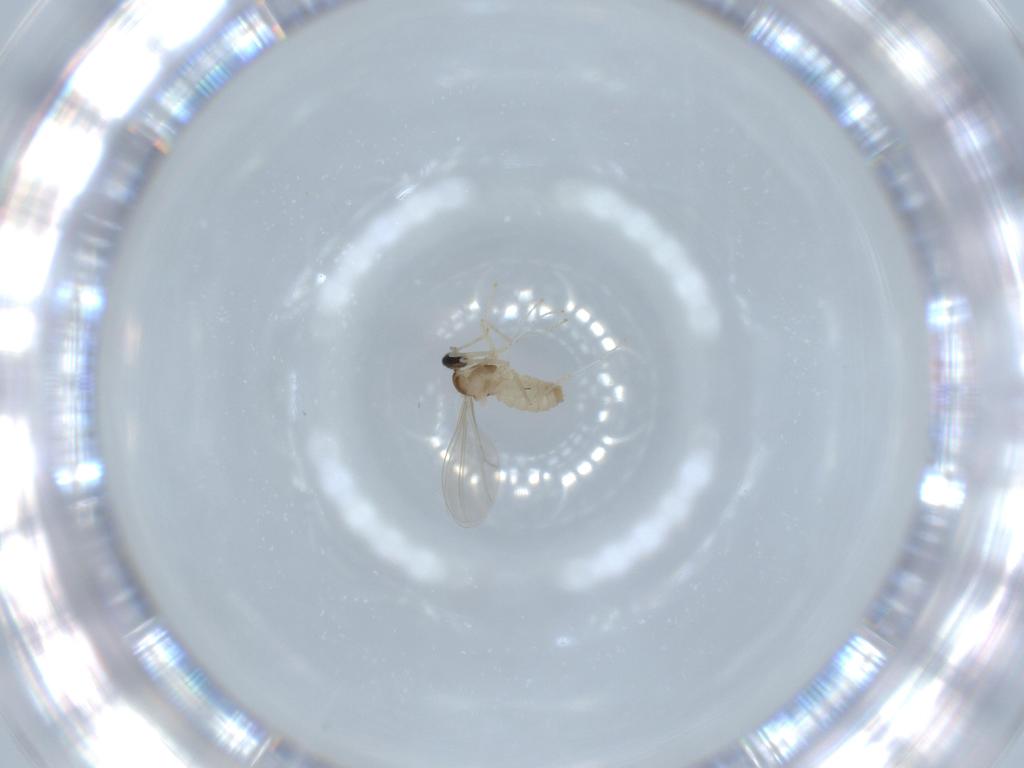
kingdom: Animalia
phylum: Arthropoda
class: Insecta
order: Diptera
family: Cecidomyiidae
